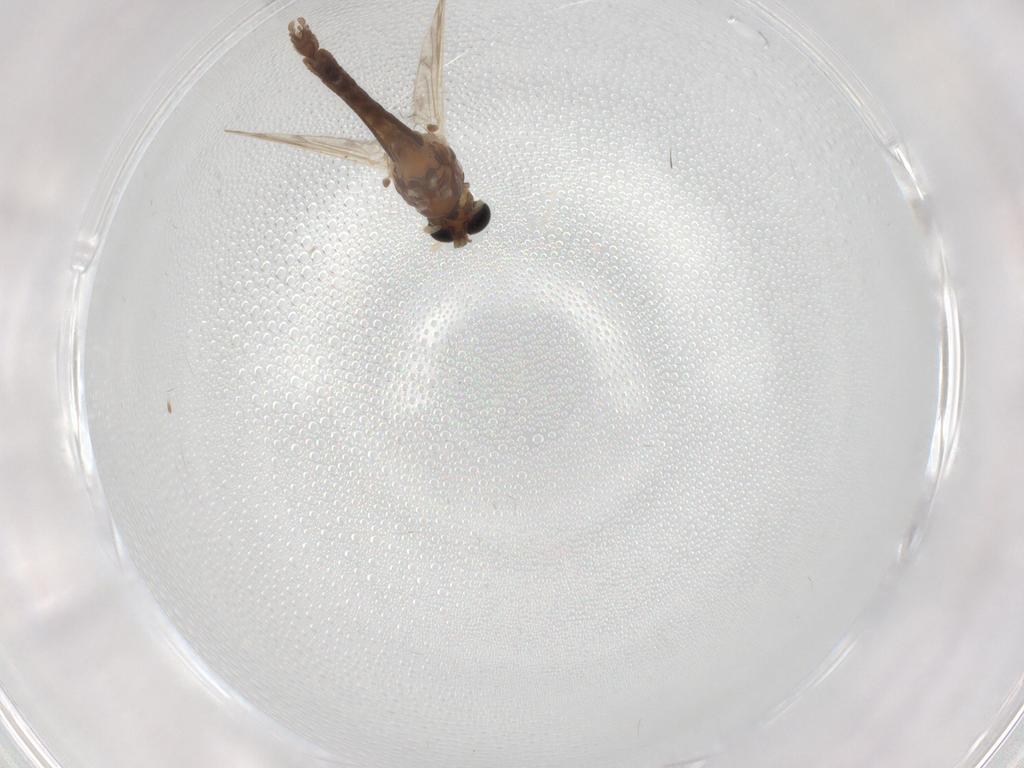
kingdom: Animalia
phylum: Arthropoda
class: Insecta
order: Diptera
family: Chironomidae
